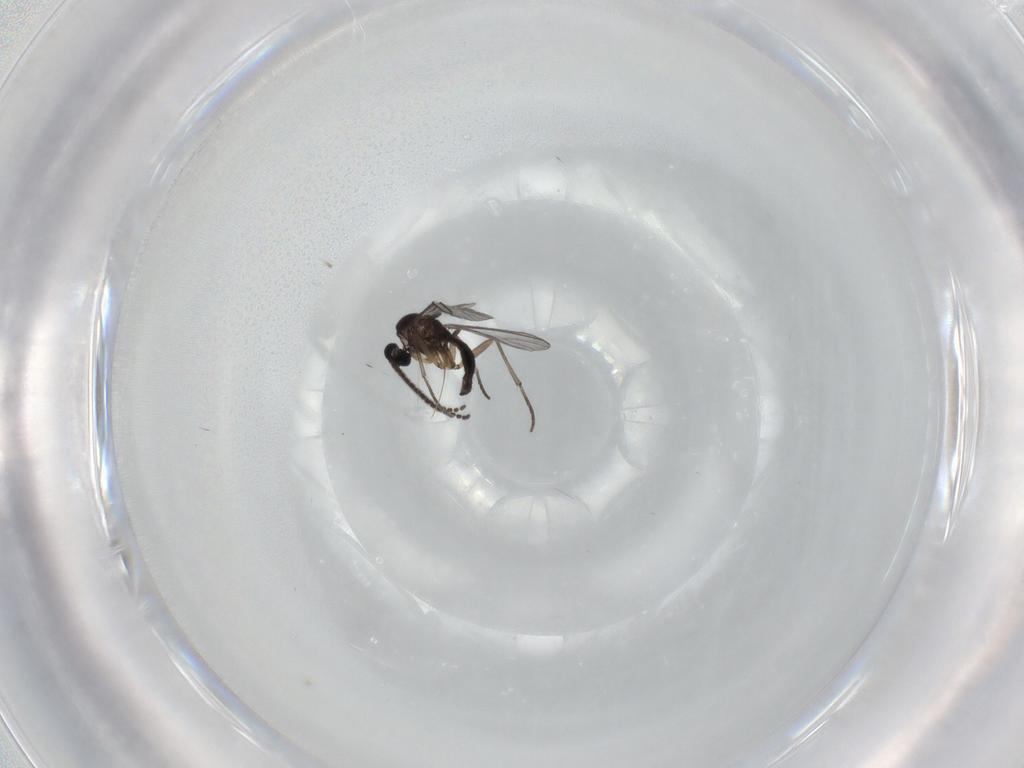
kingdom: Animalia
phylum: Arthropoda
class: Insecta
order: Diptera
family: Sciaridae
